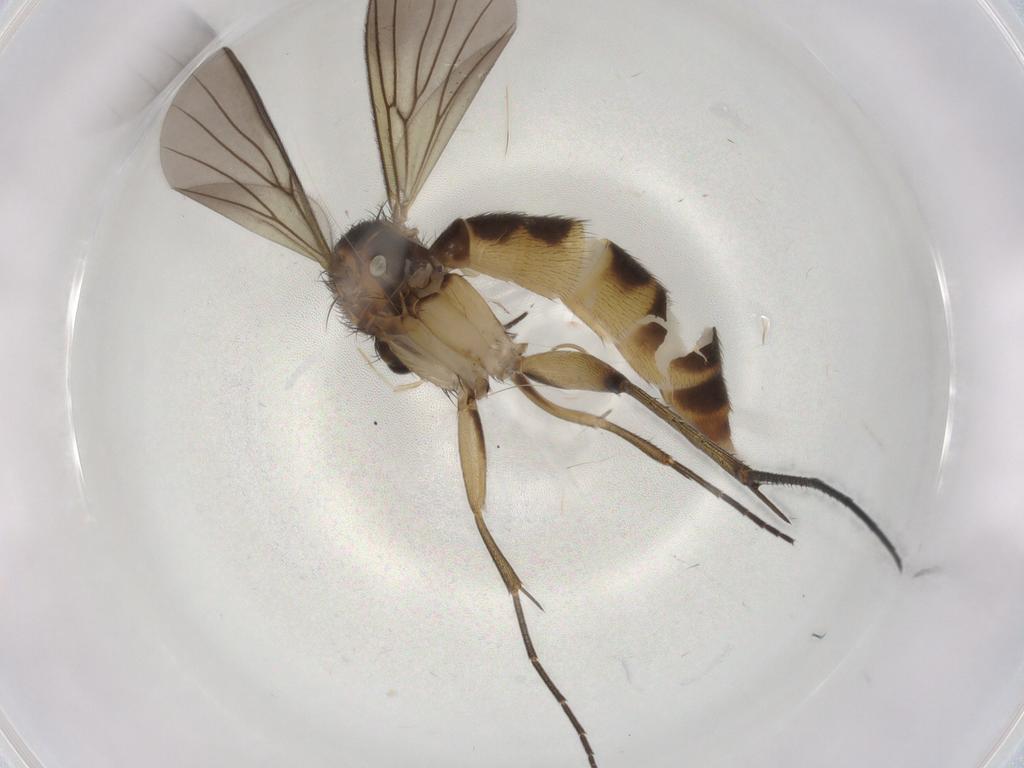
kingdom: Animalia
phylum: Arthropoda
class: Insecta
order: Diptera
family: Mycetophilidae
